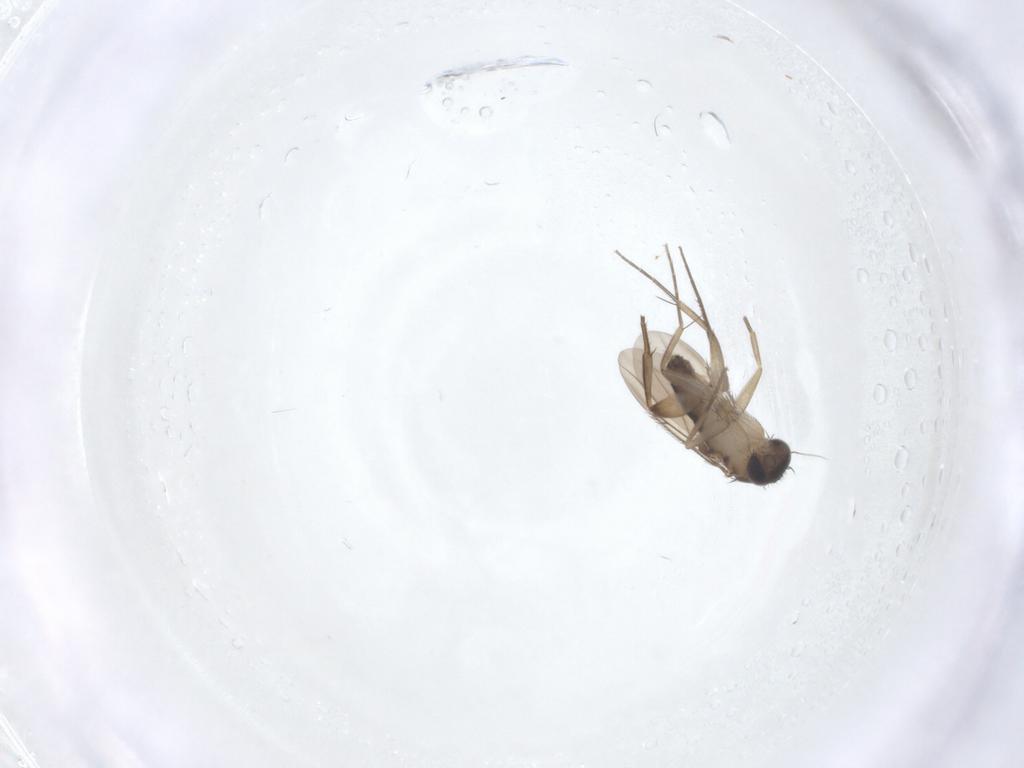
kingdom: Animalia
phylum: Arthropoda
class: Insecta
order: Diptera
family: Phoridae
